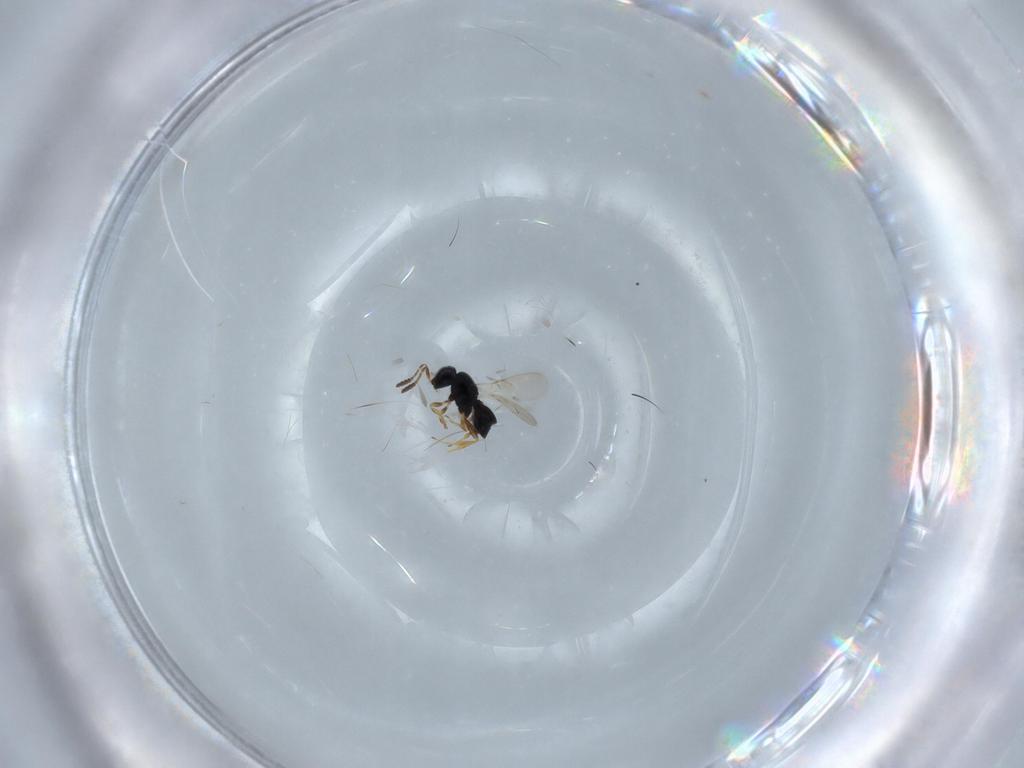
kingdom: Animalia
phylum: Arthropoda
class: Insecta
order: Hymenoptera
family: Scelionidae
